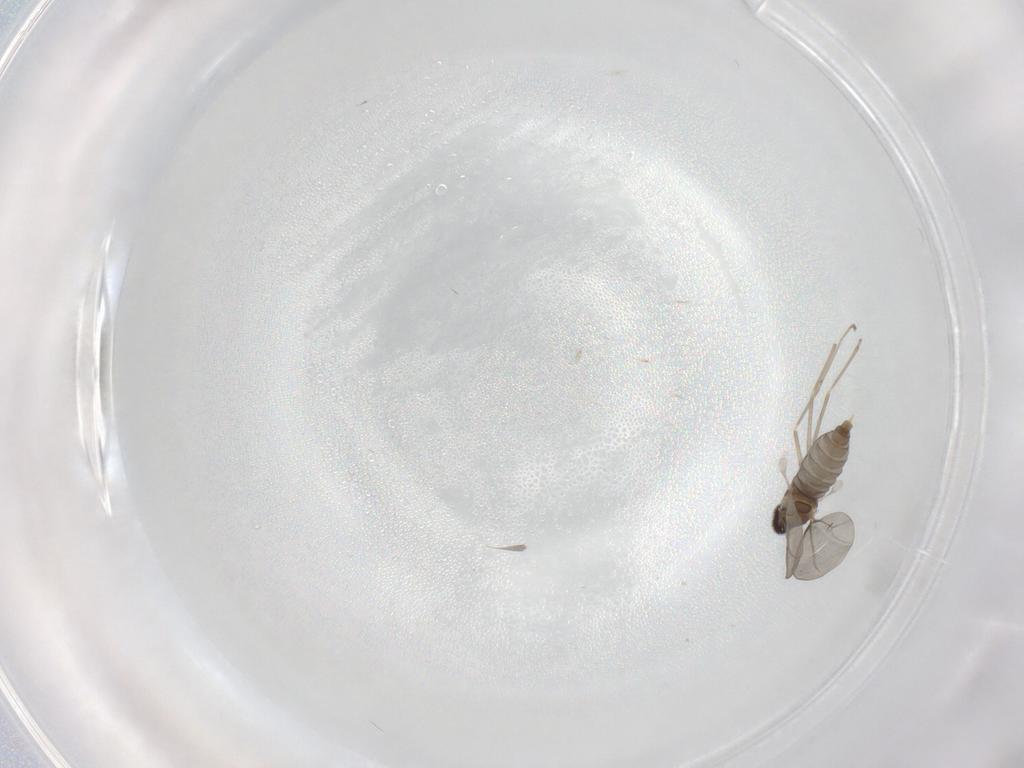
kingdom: Animalia
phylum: Arthropoda
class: Insecta
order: Diptera
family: Cecidomyiidae
